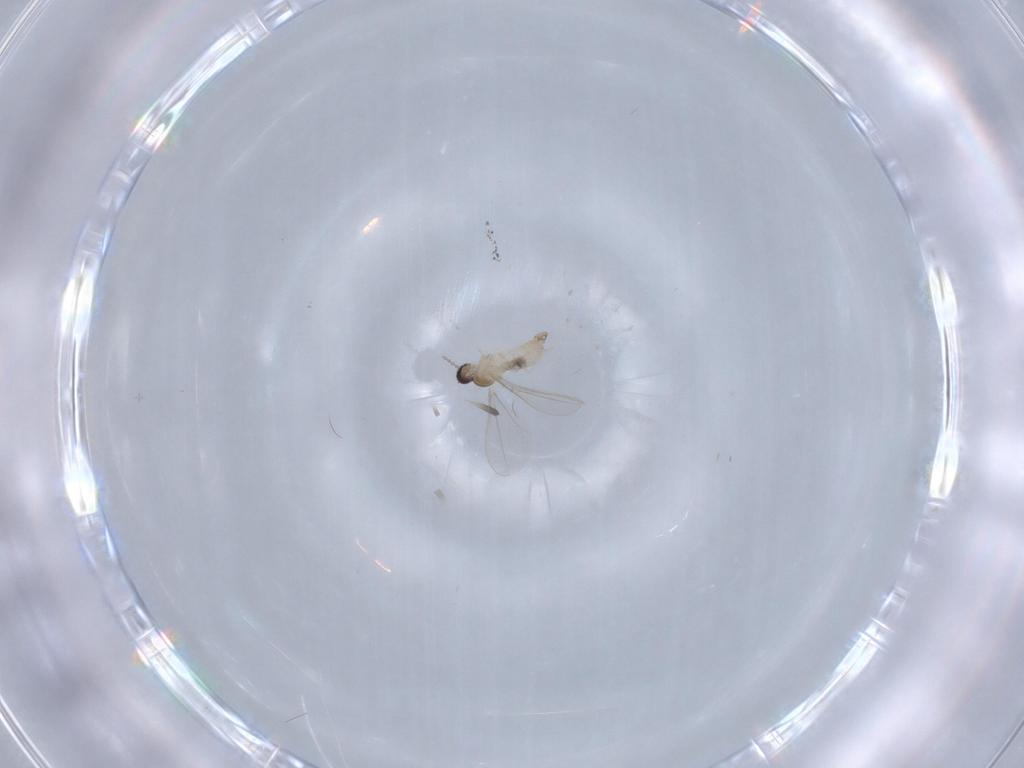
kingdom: Animalia
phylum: Arthropoda
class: Insecta
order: Diptera
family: Cecidomyiidae
